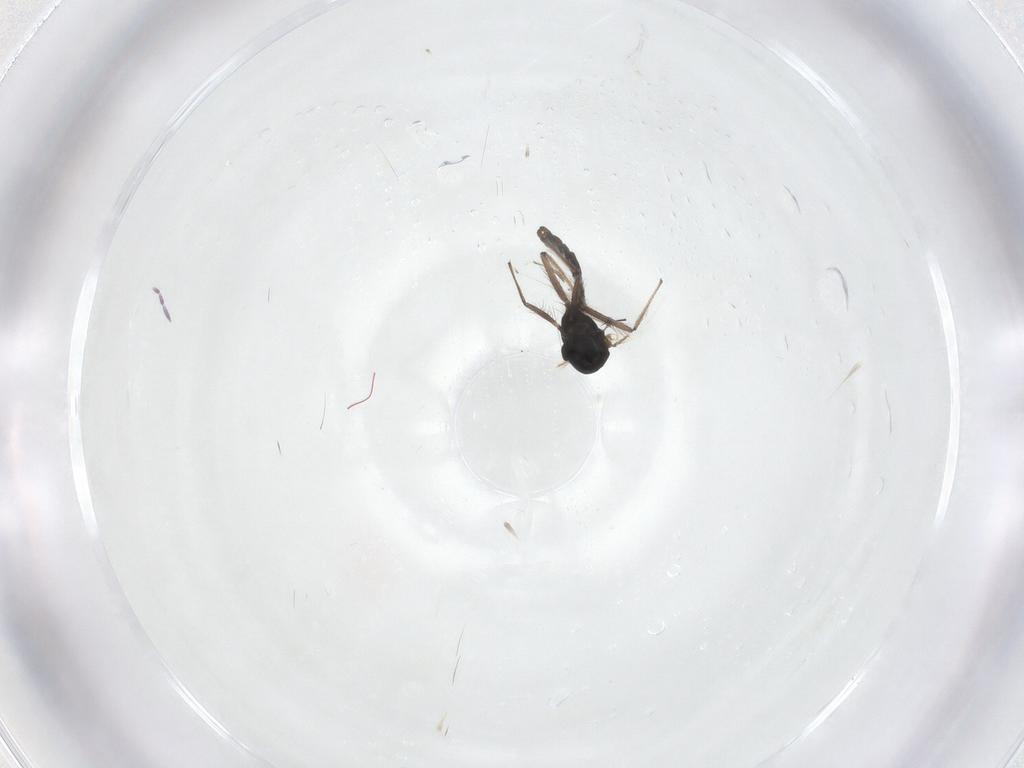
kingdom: Animalia
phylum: Arthropoda
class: Insecta
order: Diptera
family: Chironomidae
